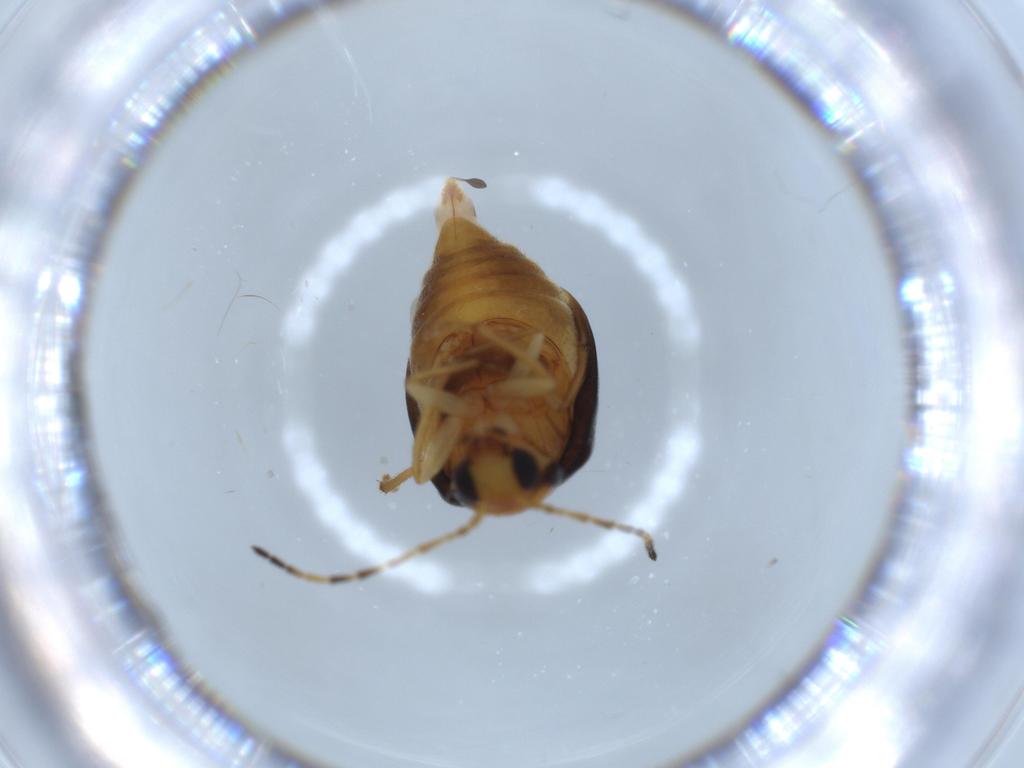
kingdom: Animalia
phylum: Arthropoda
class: Insecta
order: Coleoptera
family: Chrysomelidae
